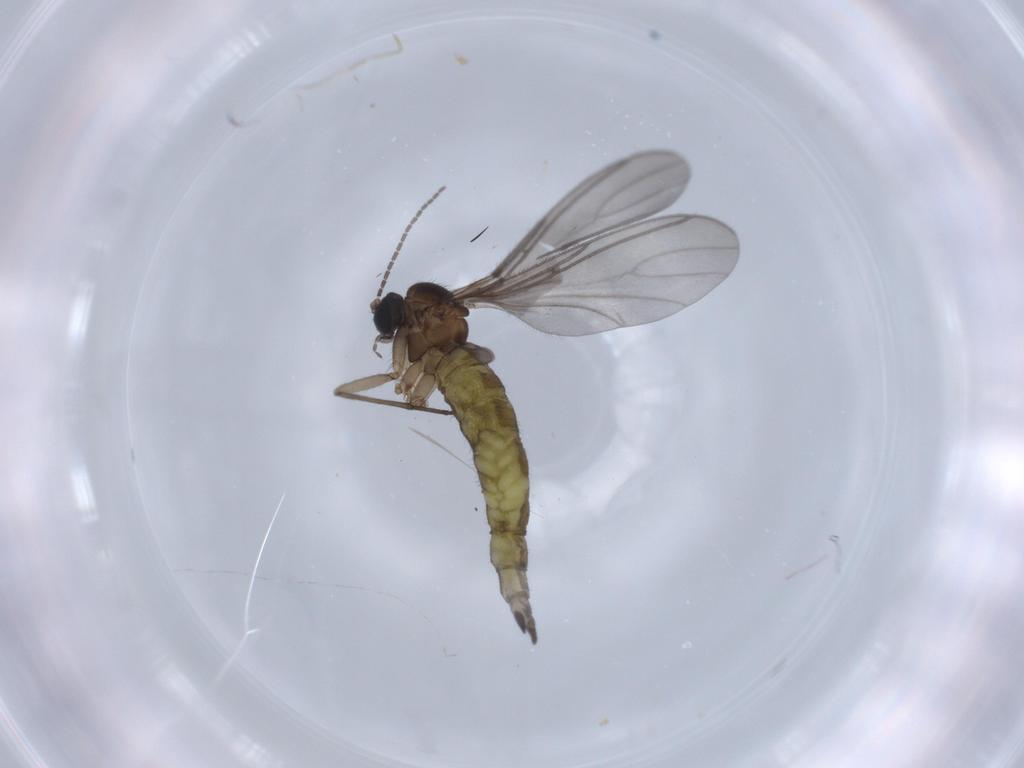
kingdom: Animalia
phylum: Arthropoda
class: Insecta
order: Diptera
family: Sciaridae
